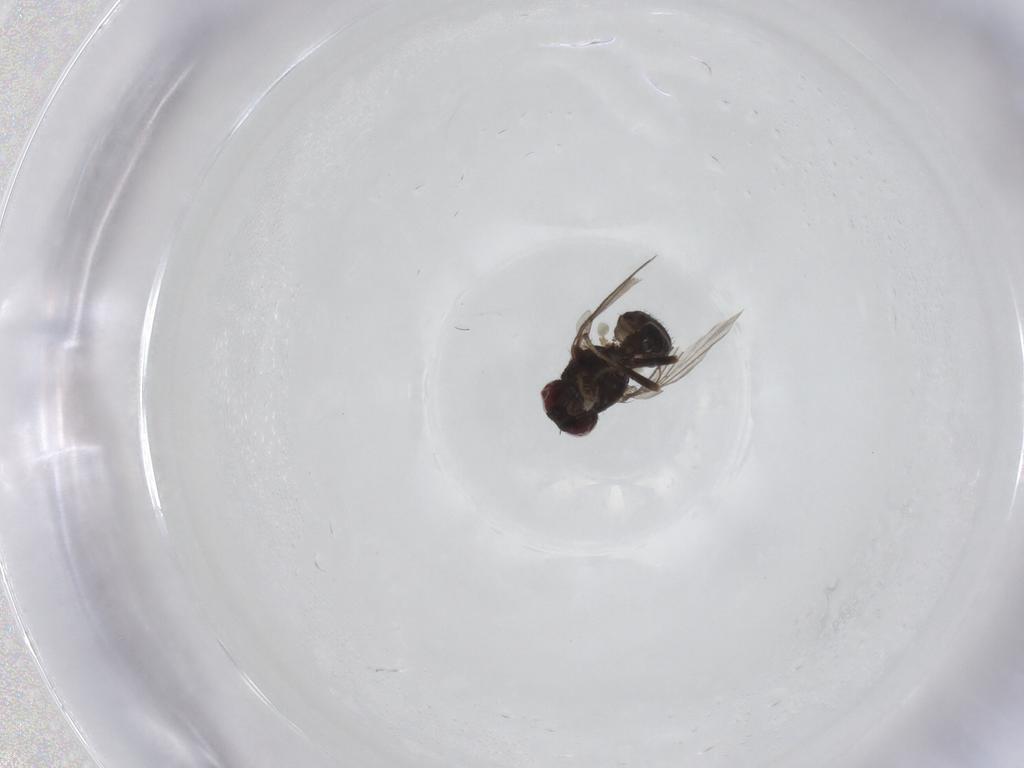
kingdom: Animalia
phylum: Arthropoda
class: Insecta
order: Diptera
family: Agromyzidae
